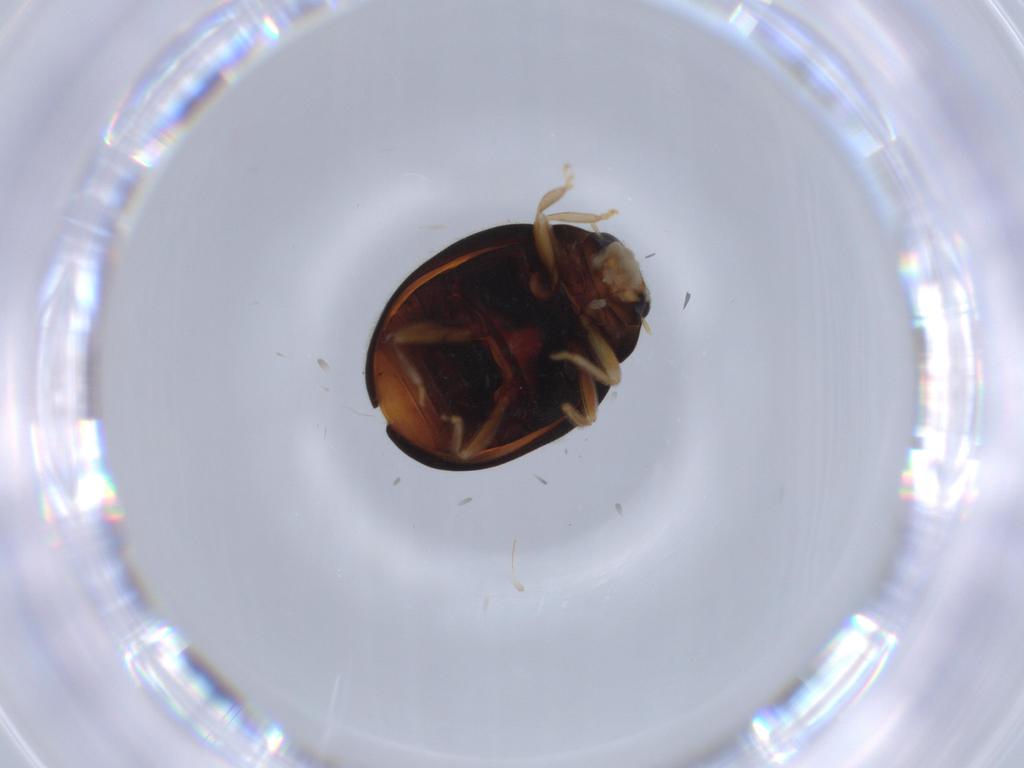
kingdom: Animalia
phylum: Arthropoda
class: Insecta
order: Coleoptera
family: Coccinellidae
